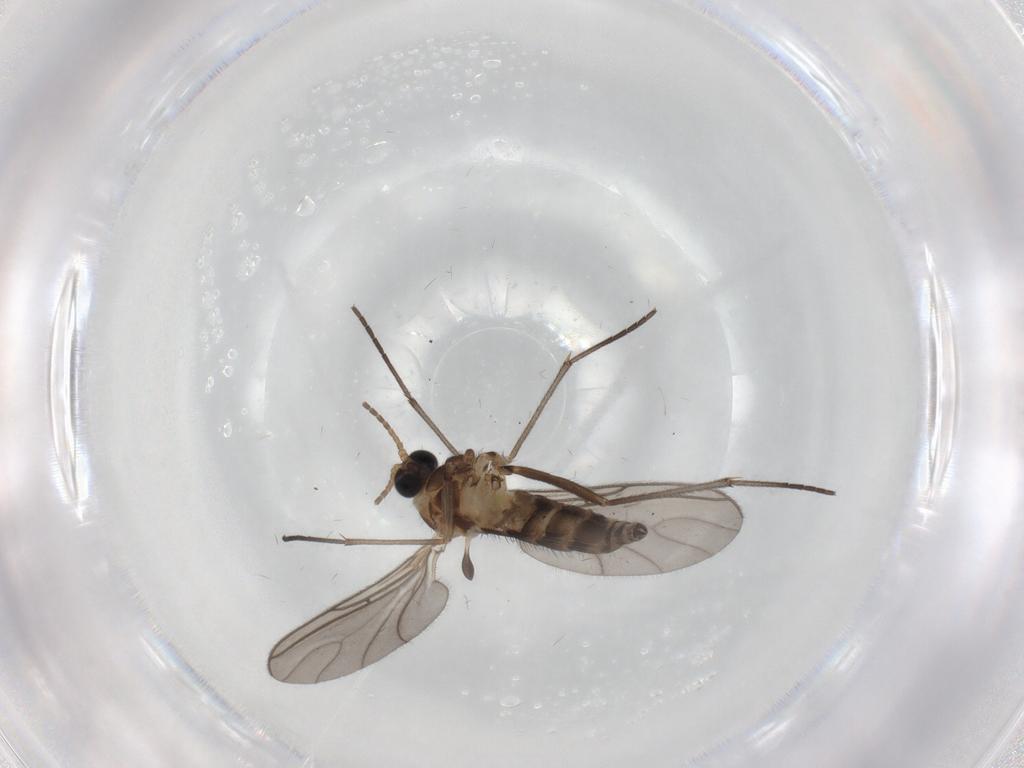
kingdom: Animalia
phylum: Arthropoda
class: Insecta
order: Diptera
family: Sciaridae
